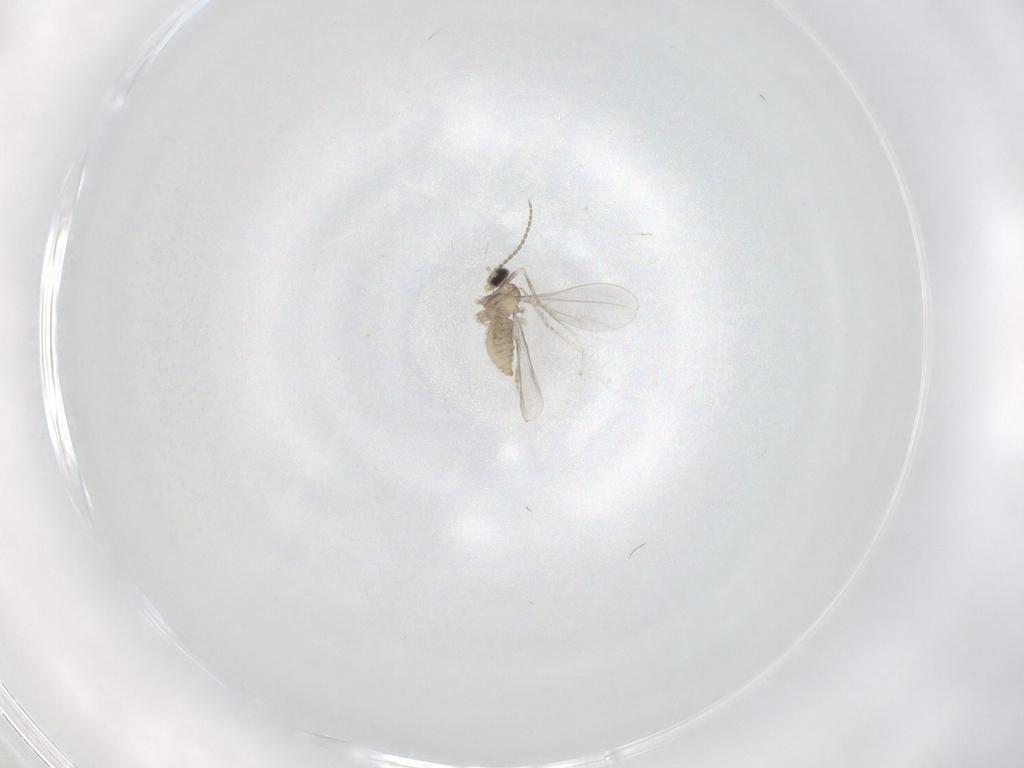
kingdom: Animalia
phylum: Arthropoda
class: Insecta
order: Diptera
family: Cecidomyiidae
